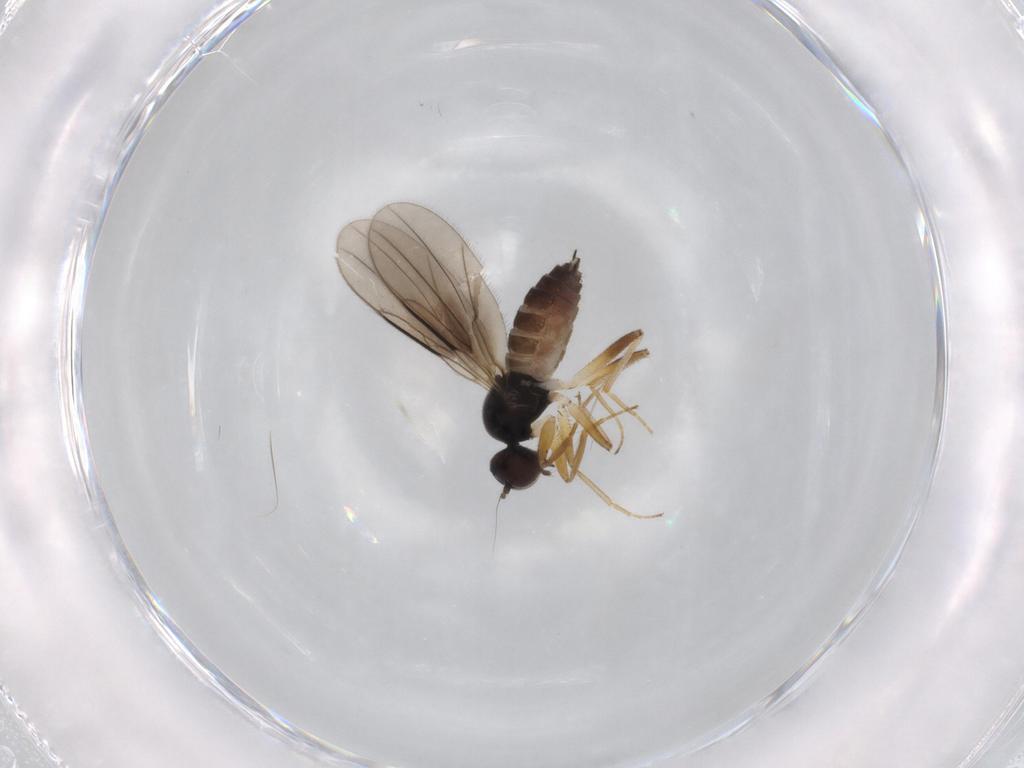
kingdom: Animalia
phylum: Arthropoda
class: Insecta
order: Diptera
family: Hybotidae
